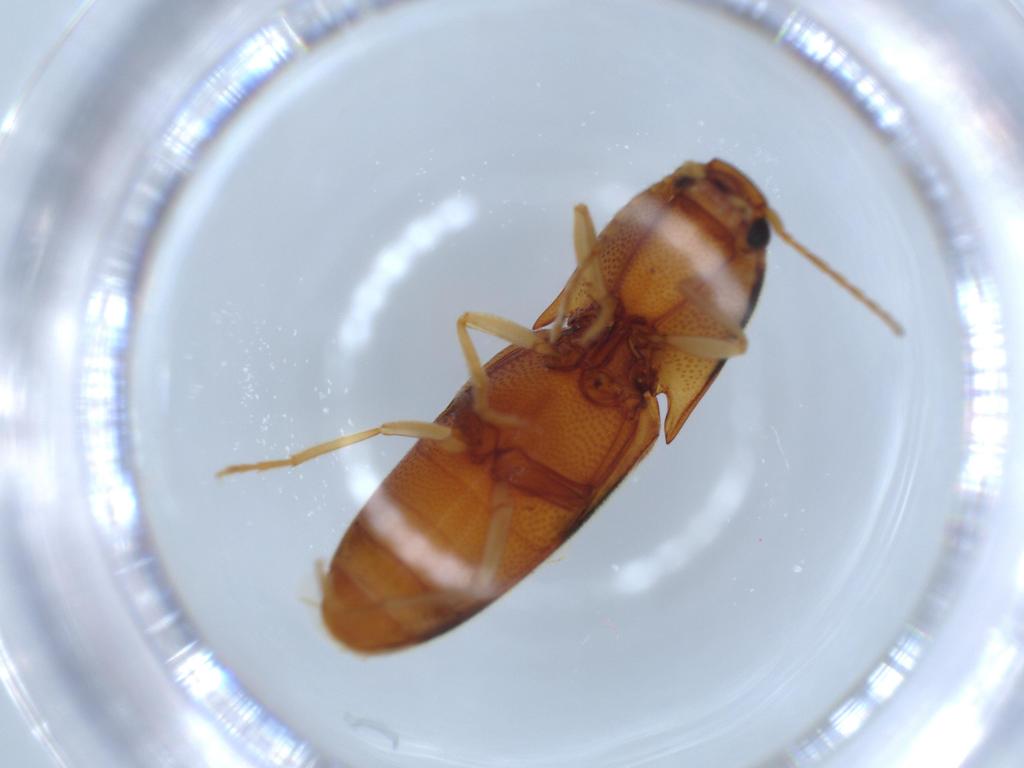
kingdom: Animalia
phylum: Arthropoda
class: Insecta
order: Coleoptera
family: Elateridae
